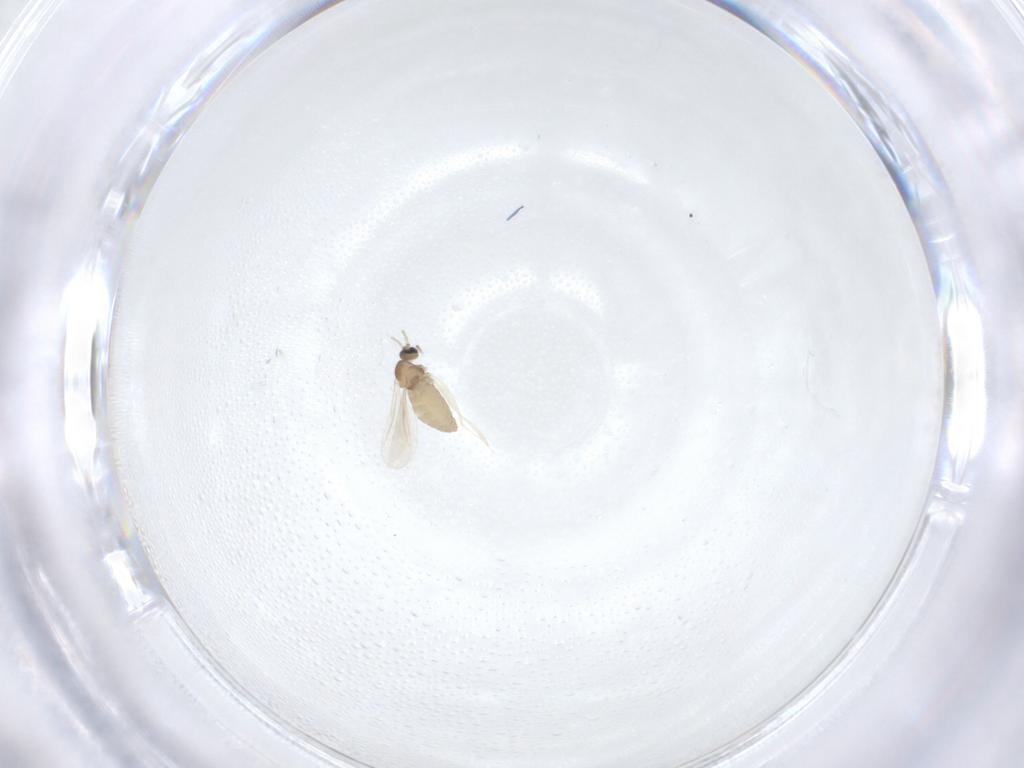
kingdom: Animalia
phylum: Arthropoda
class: Insecta
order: Diptera
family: Cecidomyiidae
